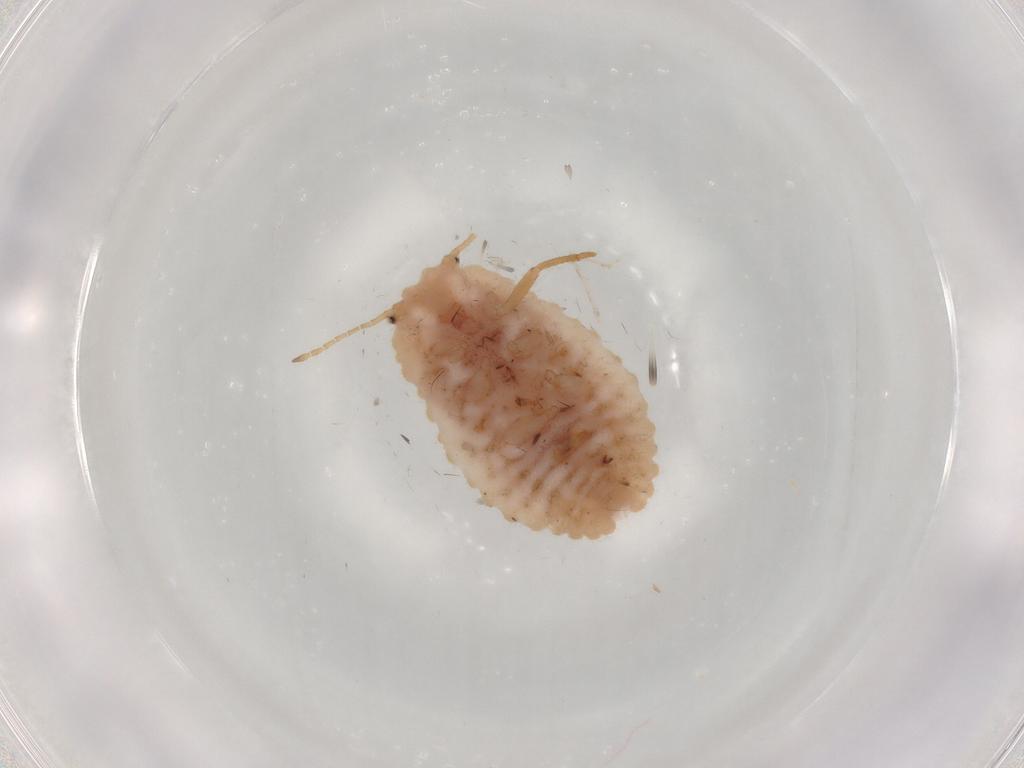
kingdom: Animalia
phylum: Arthropoda
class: Insecta
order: Hemiptera
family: Coccoidea_incertae_sedis
